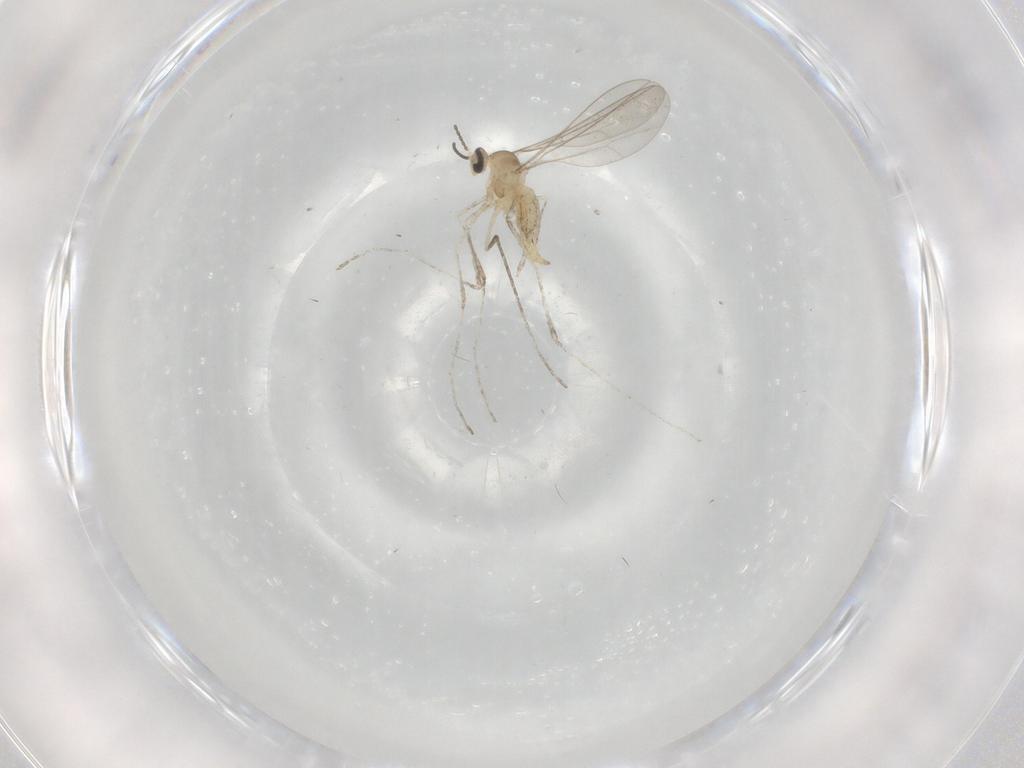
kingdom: Animalia
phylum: Arthropoda
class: Insecta
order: Diptera
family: Cecidomyiidae
